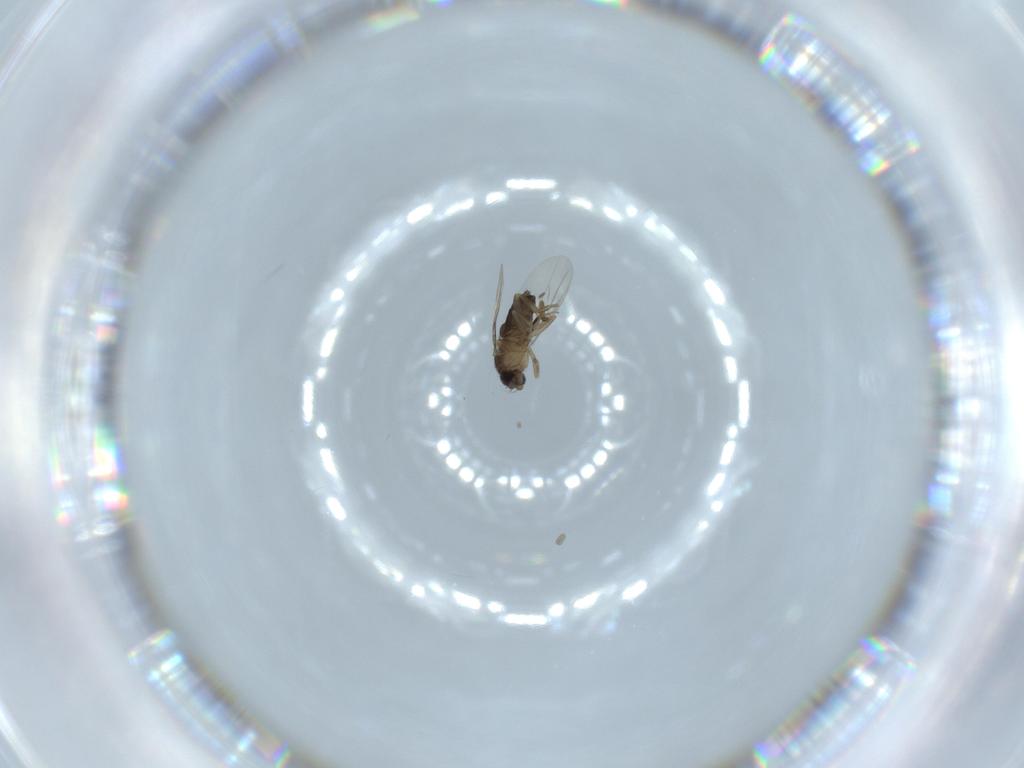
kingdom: Animalia
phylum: Arthropoda
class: Insecta
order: Diptera
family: Phoridae
